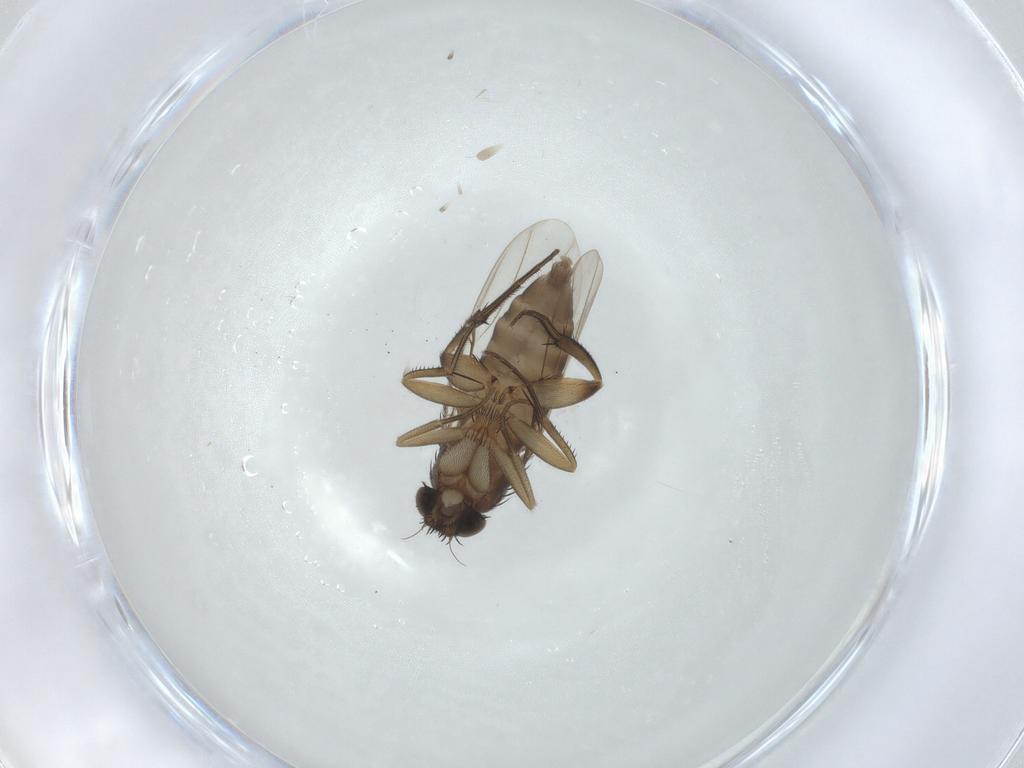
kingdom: Animalia
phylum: Arthropoda
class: Insecta
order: Diptera
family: Phoridae
